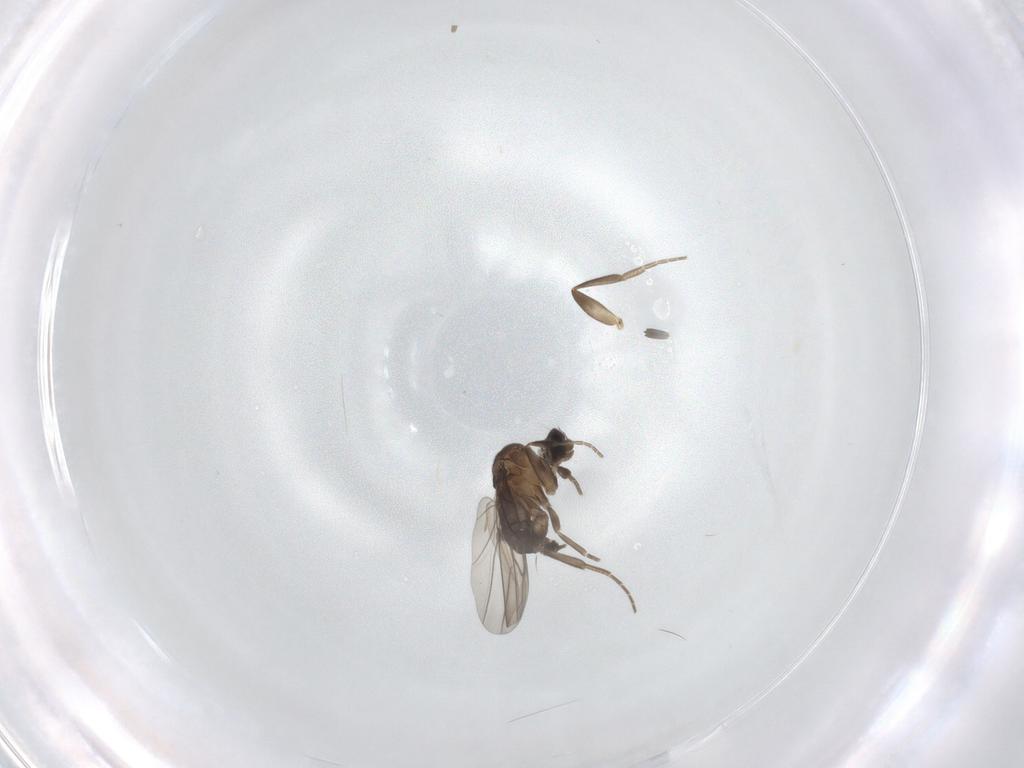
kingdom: Animalia
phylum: Arthropoda
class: Insecta
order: Diptera
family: Phoridae
